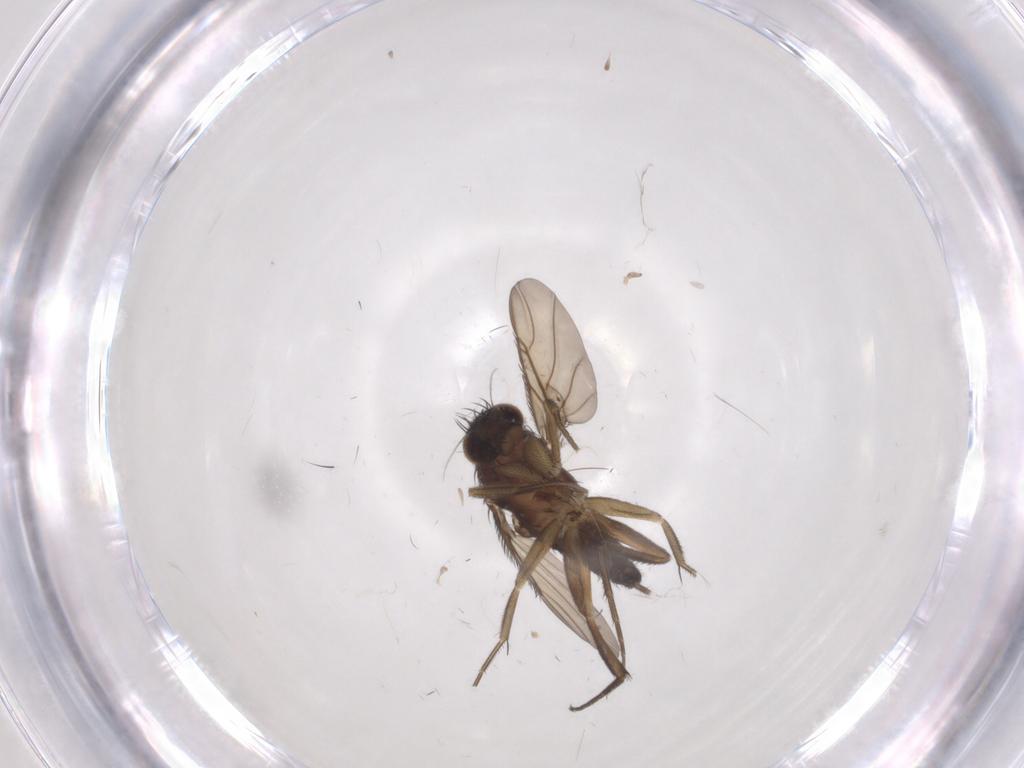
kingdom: Animalia
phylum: Arthropoda
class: Insecta
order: Diptera
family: Phoridae
